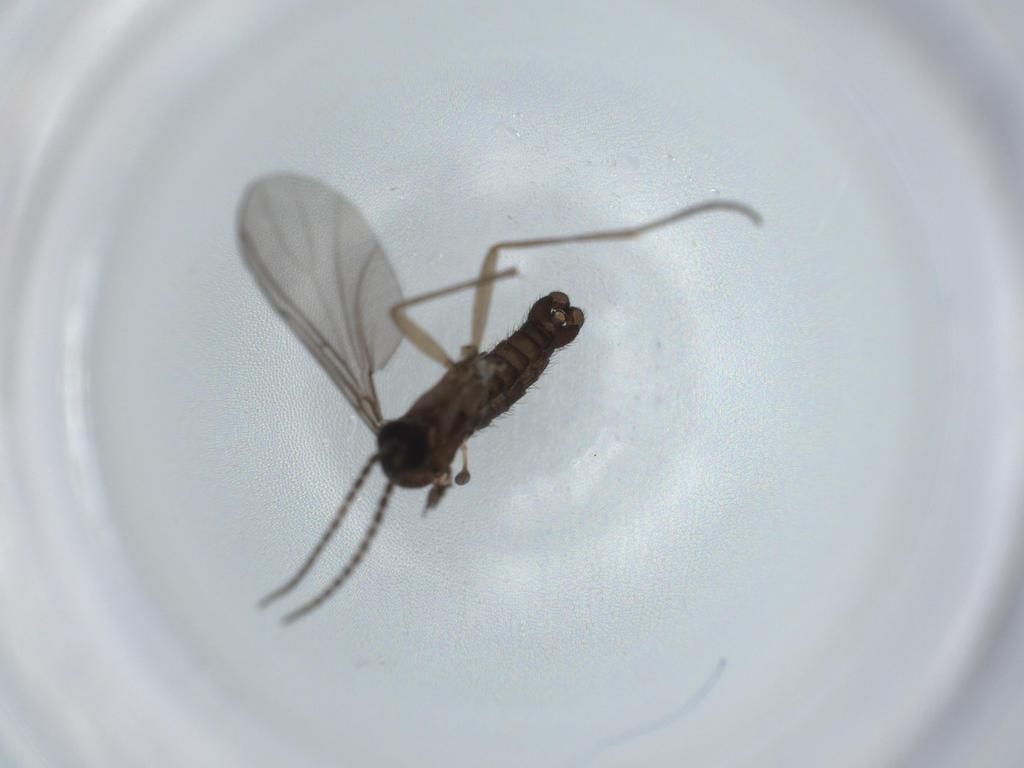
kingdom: Animalia
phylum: Arthropoda
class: Insecta
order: Diptera
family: Sciaridae
